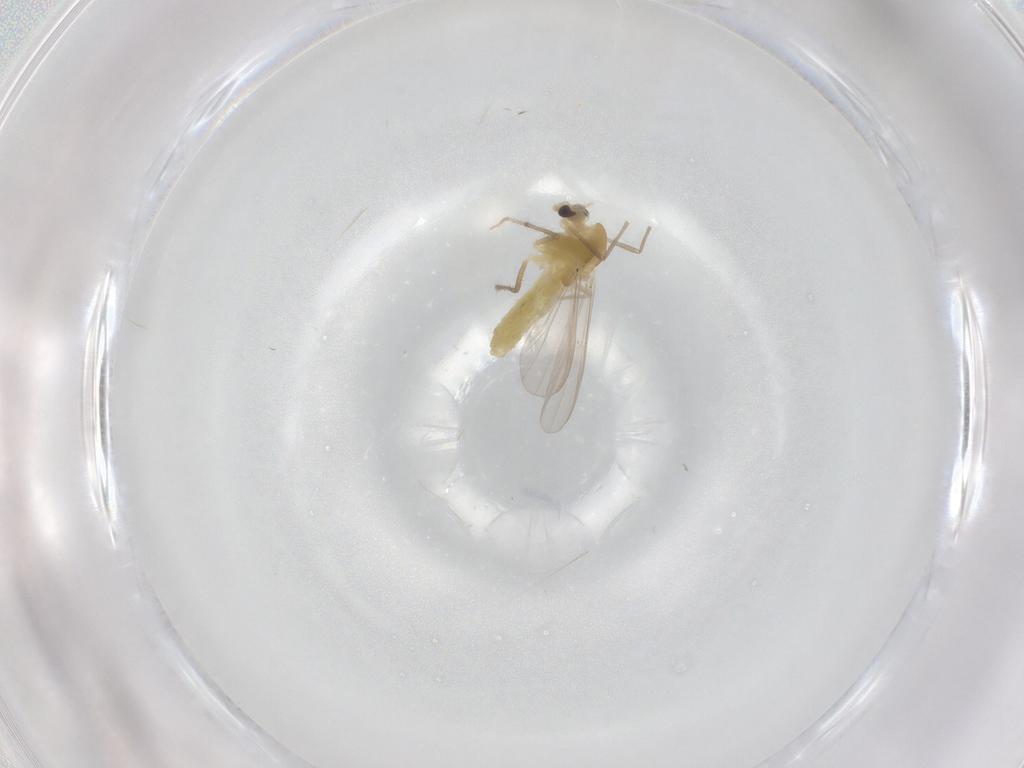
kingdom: Animalia
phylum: Arthropoda
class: Insecta
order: Diptera
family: Chironomidae
